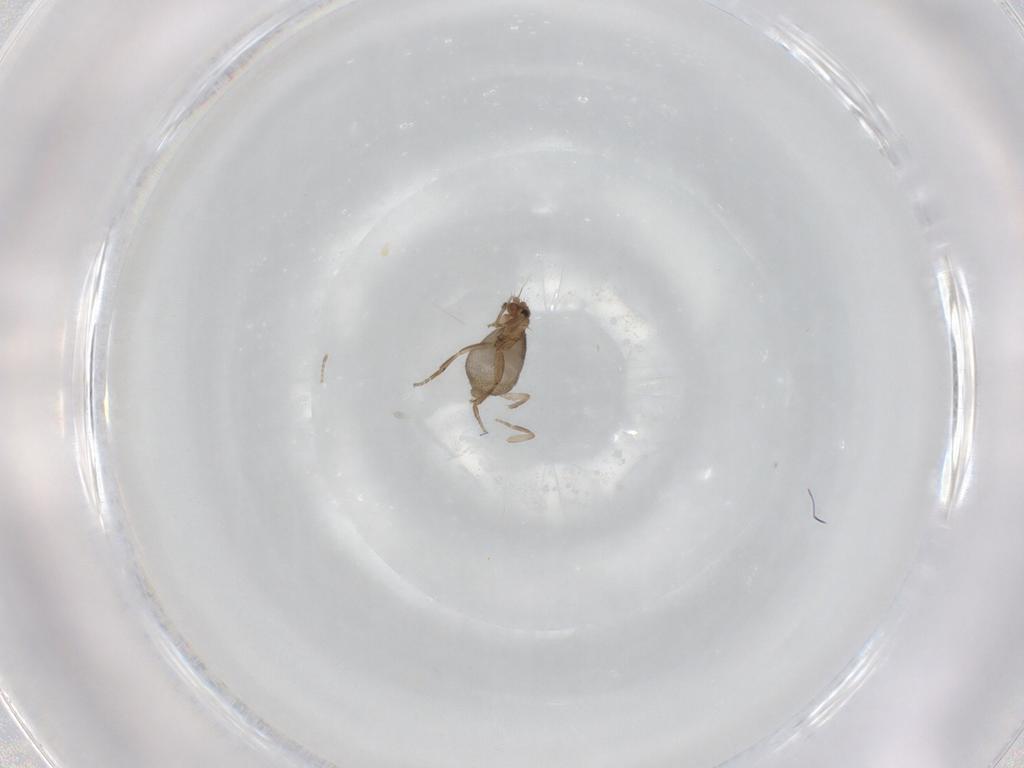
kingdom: Animalia
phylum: Arthropoda
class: Insecta
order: Diptera
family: Phoridae
